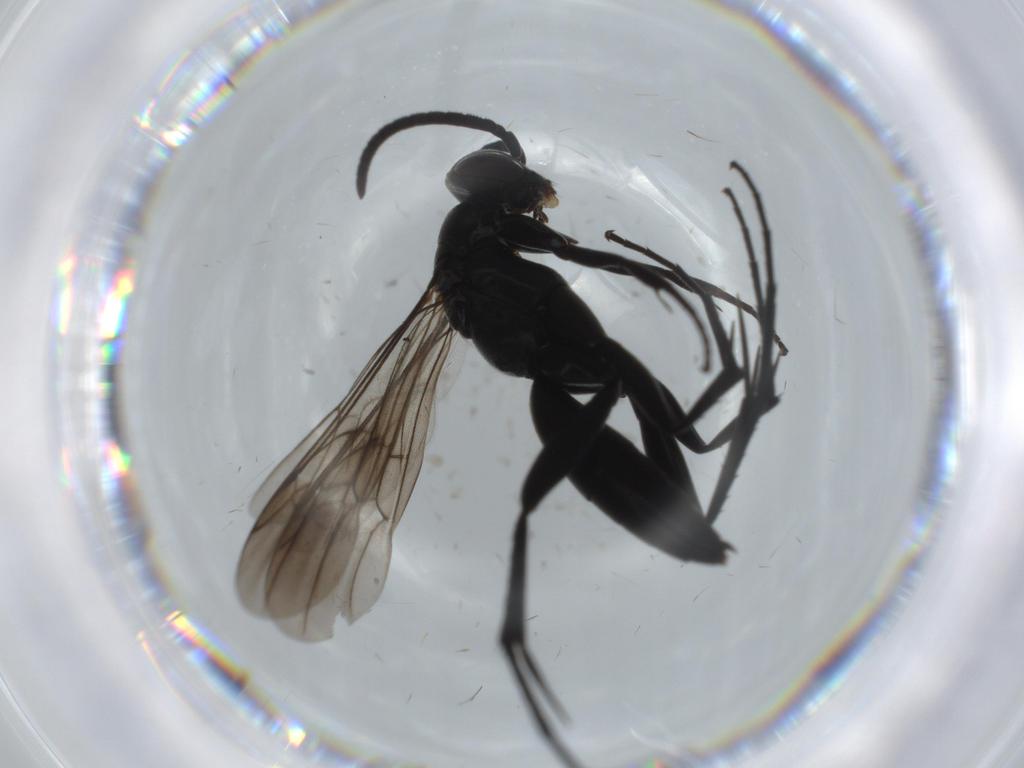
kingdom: Animalia
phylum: Arthropoda
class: Insecta
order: Hymenoptera
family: Pompilidae
